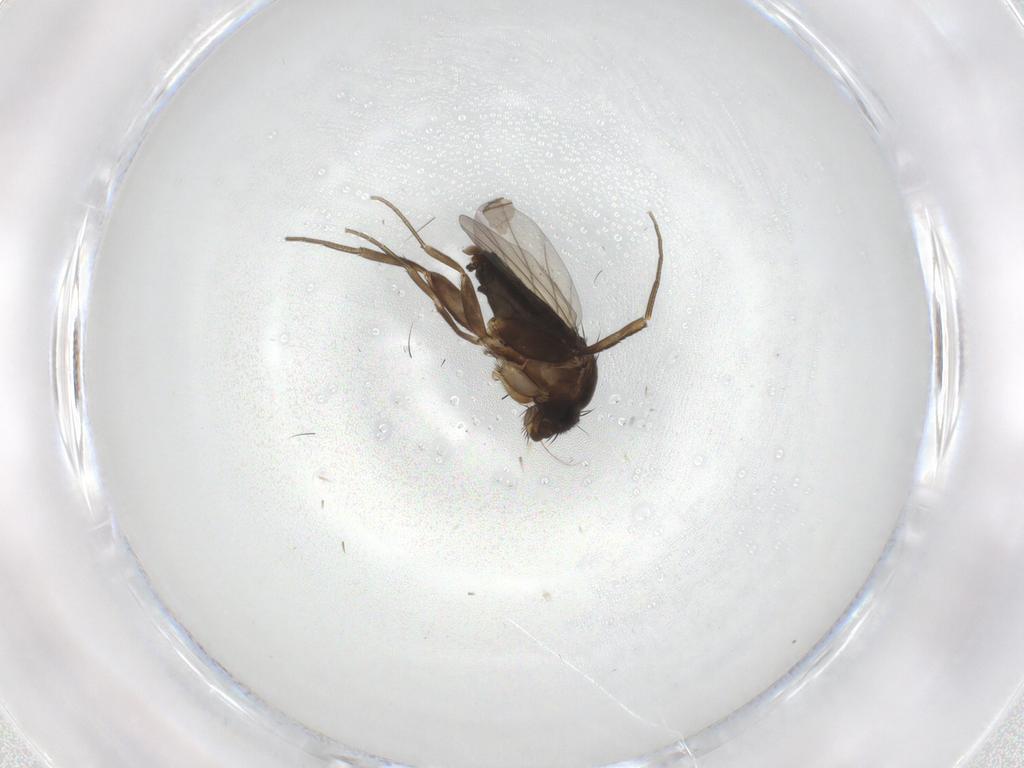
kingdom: Animalia
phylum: Arthropoda
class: Insecta
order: Diptera
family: Phoridae
